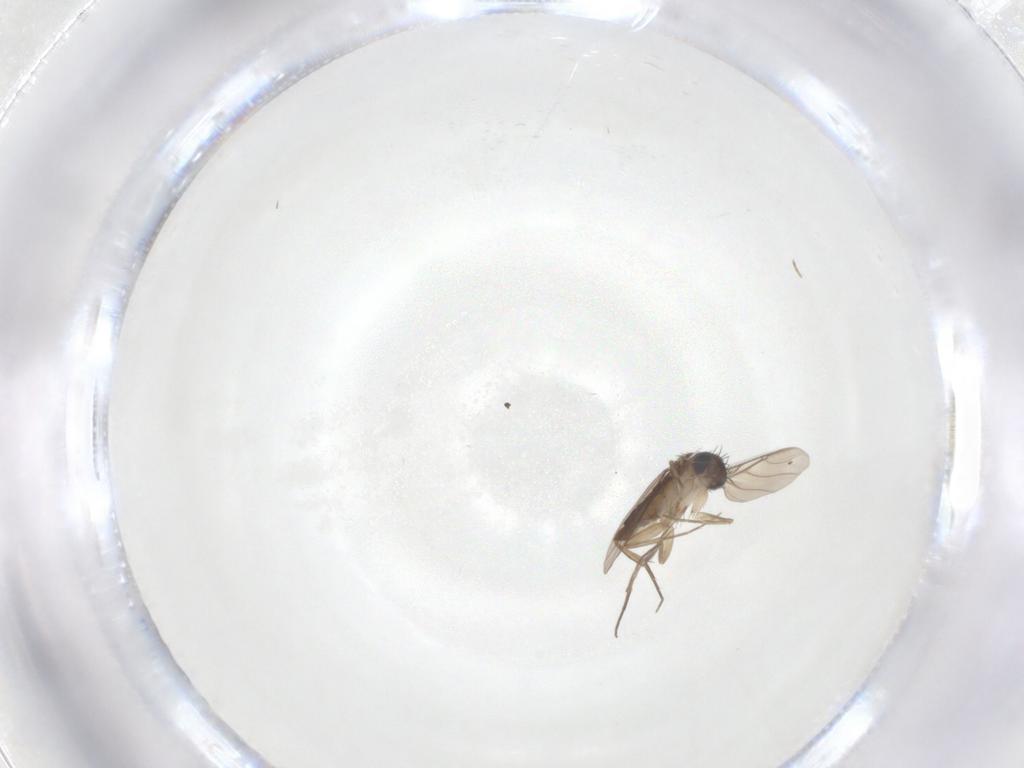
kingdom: Animalia
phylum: Arthropoda
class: Insecta
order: Diptera
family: Phoridae
